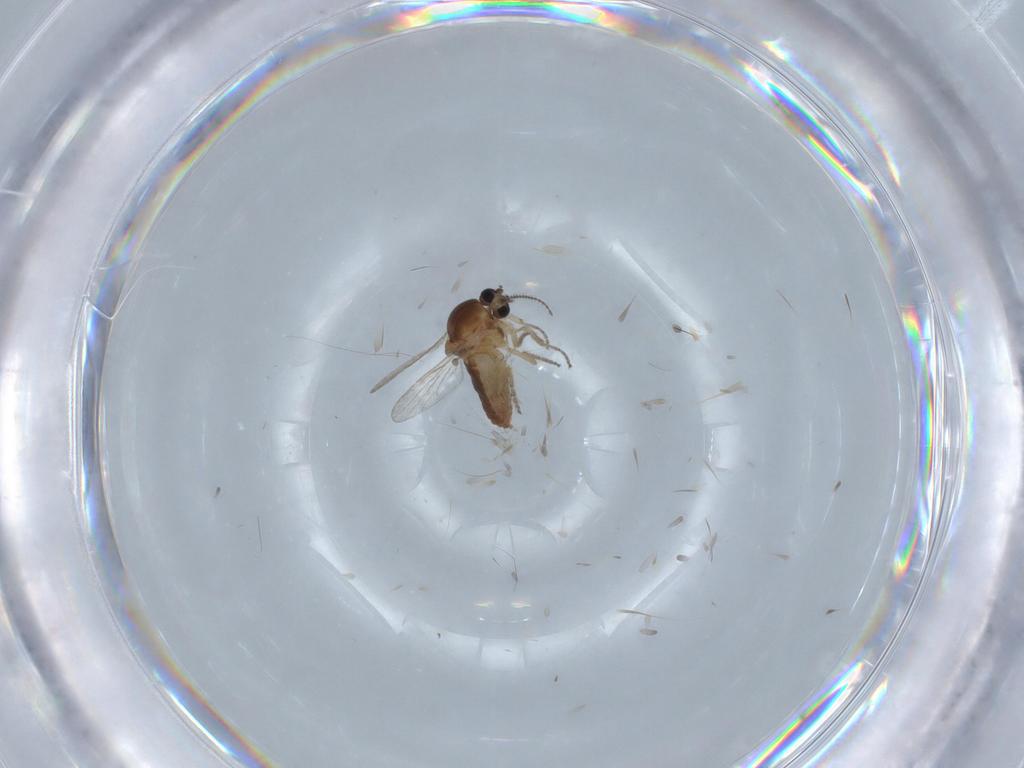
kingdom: Animalia
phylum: Arthropoda
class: Insecta
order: Diptera
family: Ceratopogonidae
